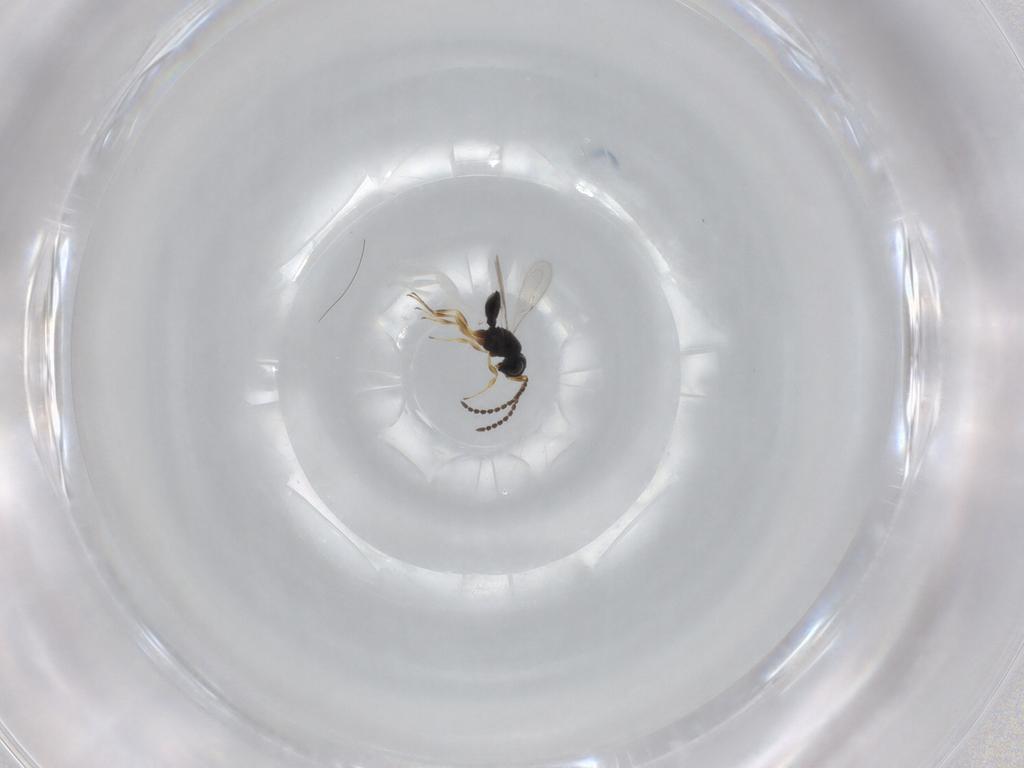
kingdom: Animalia
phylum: Arthropoda
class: Insecta
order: Hymenoptera
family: Scelionidae
